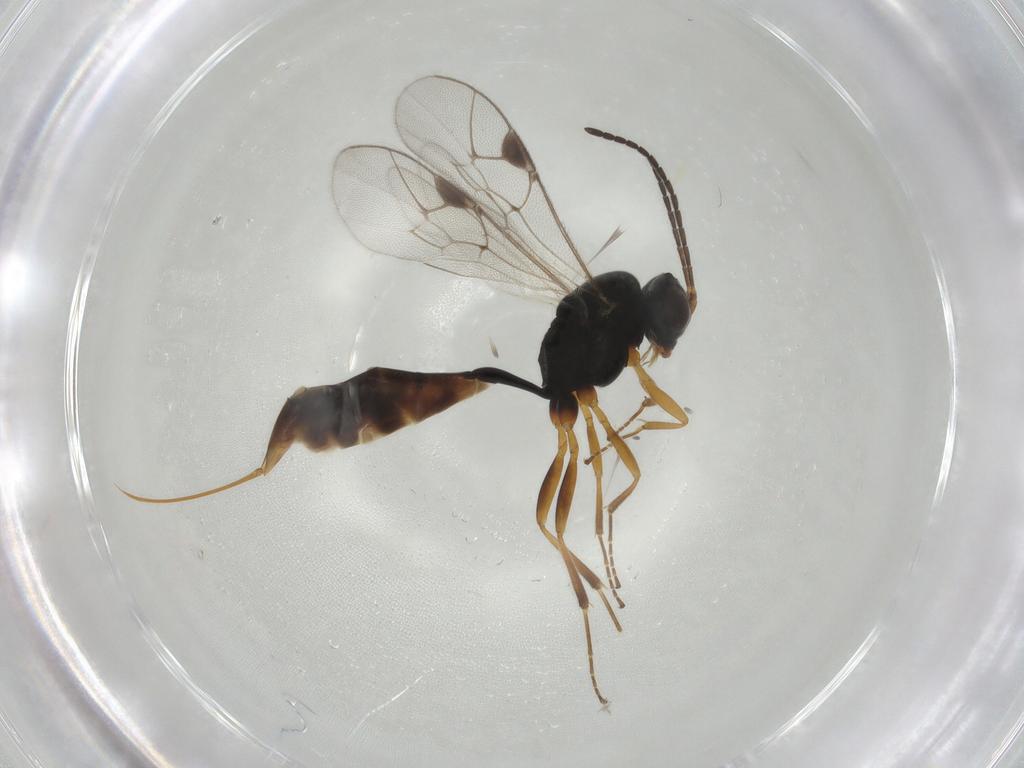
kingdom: Animalia
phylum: Arthropoda
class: Insecta
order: Hymenoptera
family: Ichneumonidae
